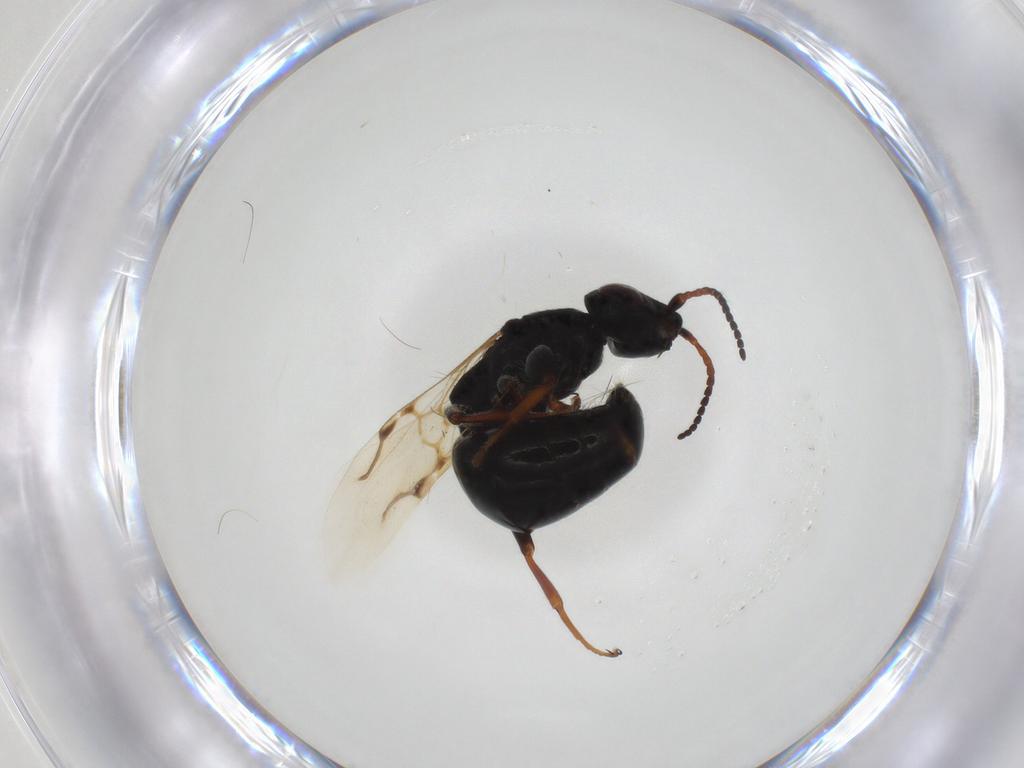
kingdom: Animalia
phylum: Arthropoda
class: Insecta
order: Hymenoptera
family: Bethylidae
